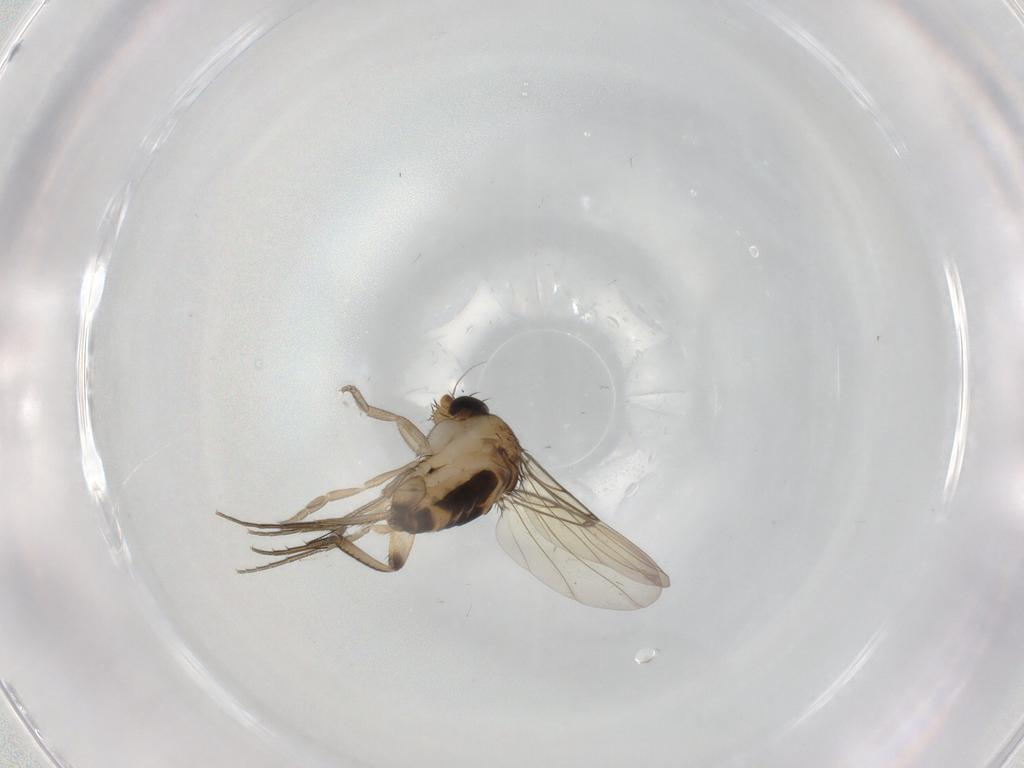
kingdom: Animalia
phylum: Arthropoda
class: Insecta
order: Diptera
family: Cecidomyiidae
